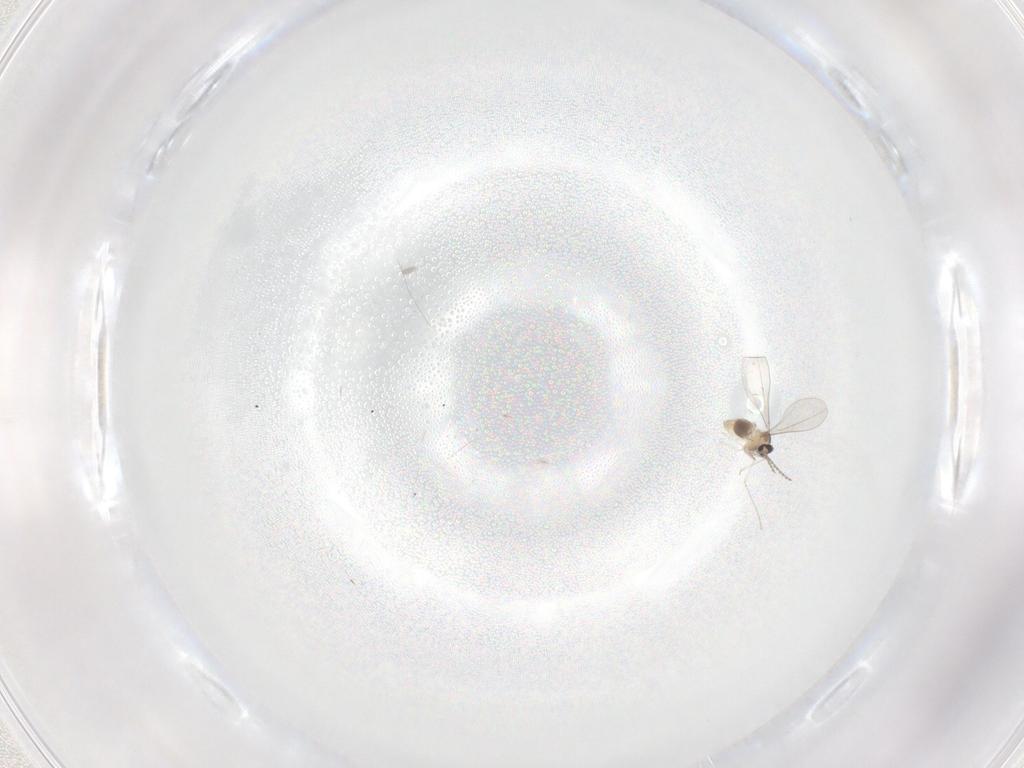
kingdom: Animalia
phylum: Arthropoda
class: Insecta
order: Diptera
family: Cecidomyiidae
